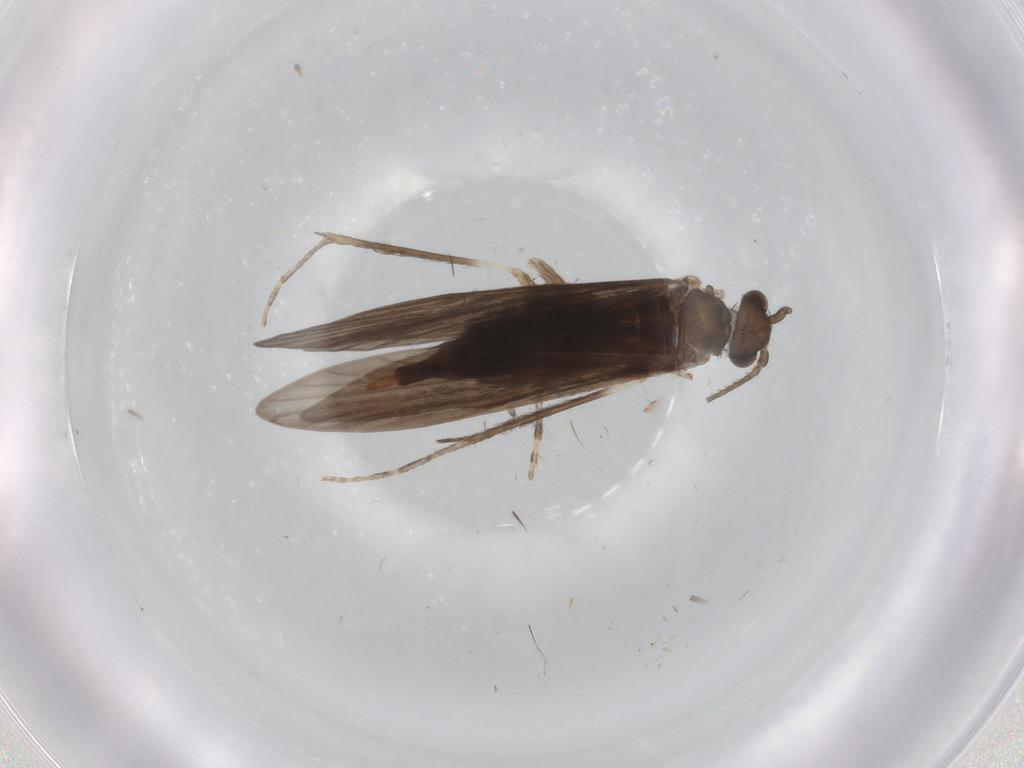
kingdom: Animalia
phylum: Arthropoda
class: Insecta
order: Trichoptera
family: Xiphocentronidae
